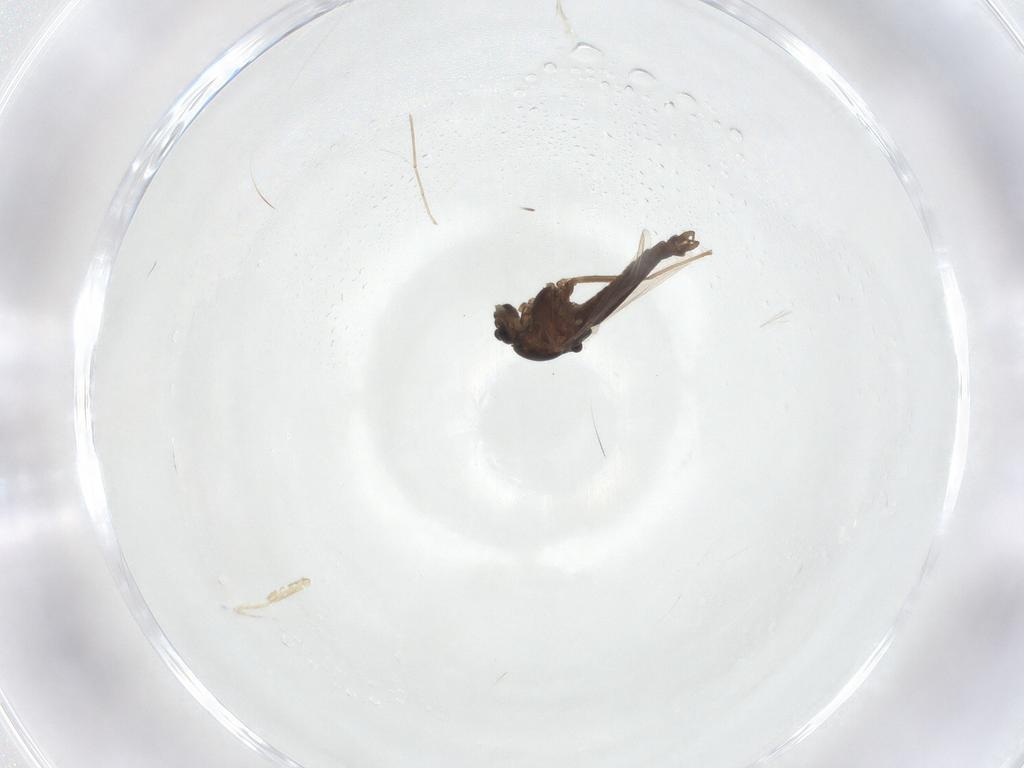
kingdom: Animalia
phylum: Arthropoda
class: Insecta
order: Diptera
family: Chironomidae
